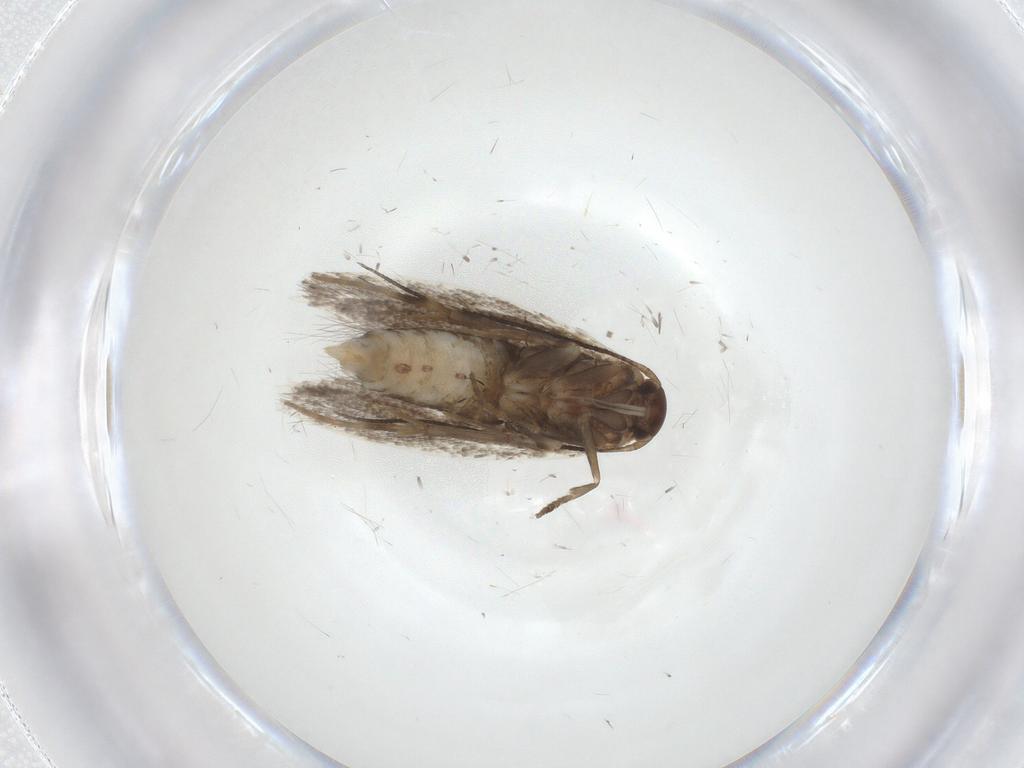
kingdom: Animalia
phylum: Arthropoda
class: Insecta
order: Lepidoptera
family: Elachistidae
